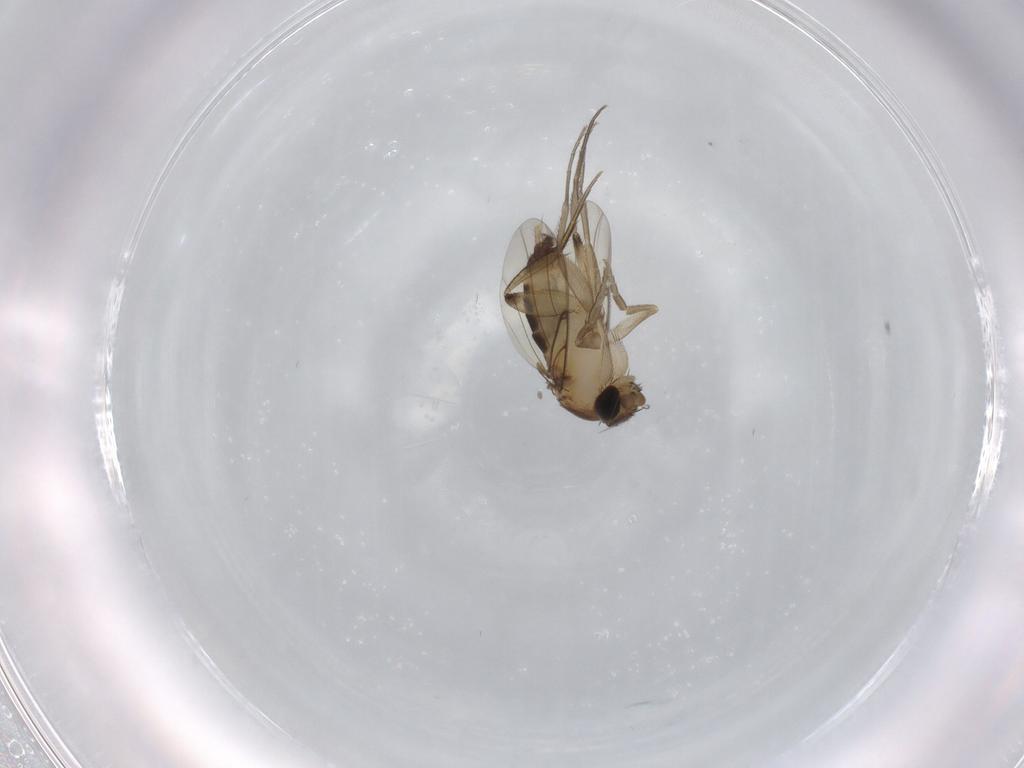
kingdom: Animalia
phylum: Arthropoda
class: Insecta
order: Diptera
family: Phoridae
